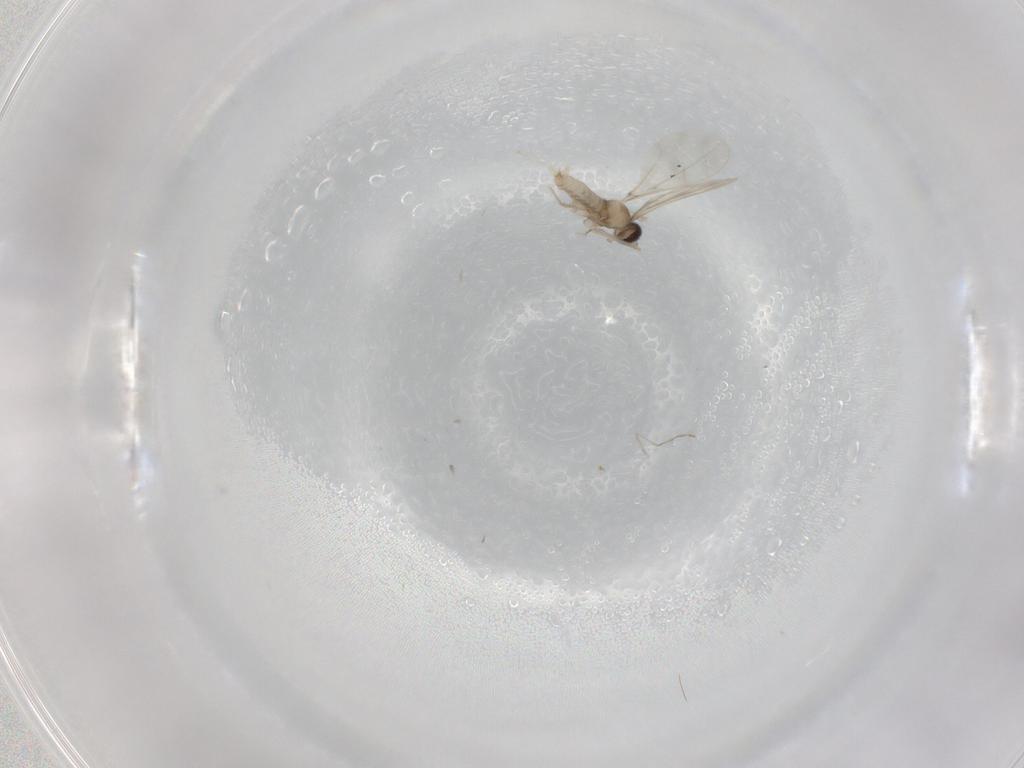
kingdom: Animalia
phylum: Arthropoda
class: Insecta
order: Diptera
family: Cecidomyiidae
